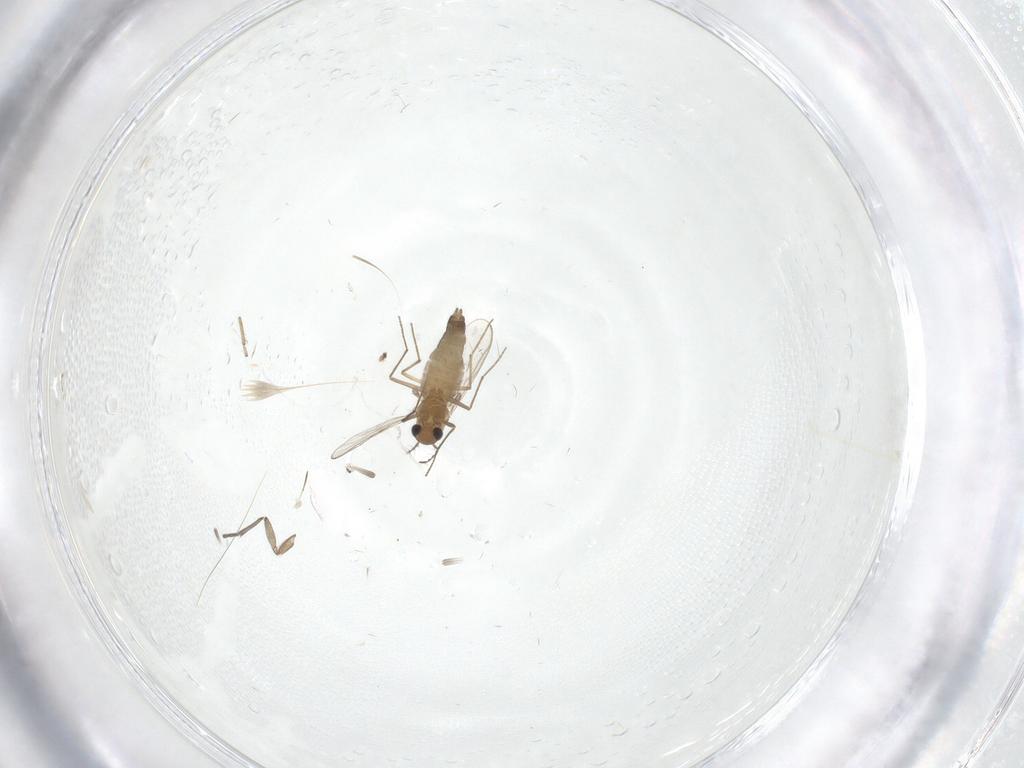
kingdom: Animalia
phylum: Arthropoda
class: Insecta
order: Diptera
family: Chironomidae
